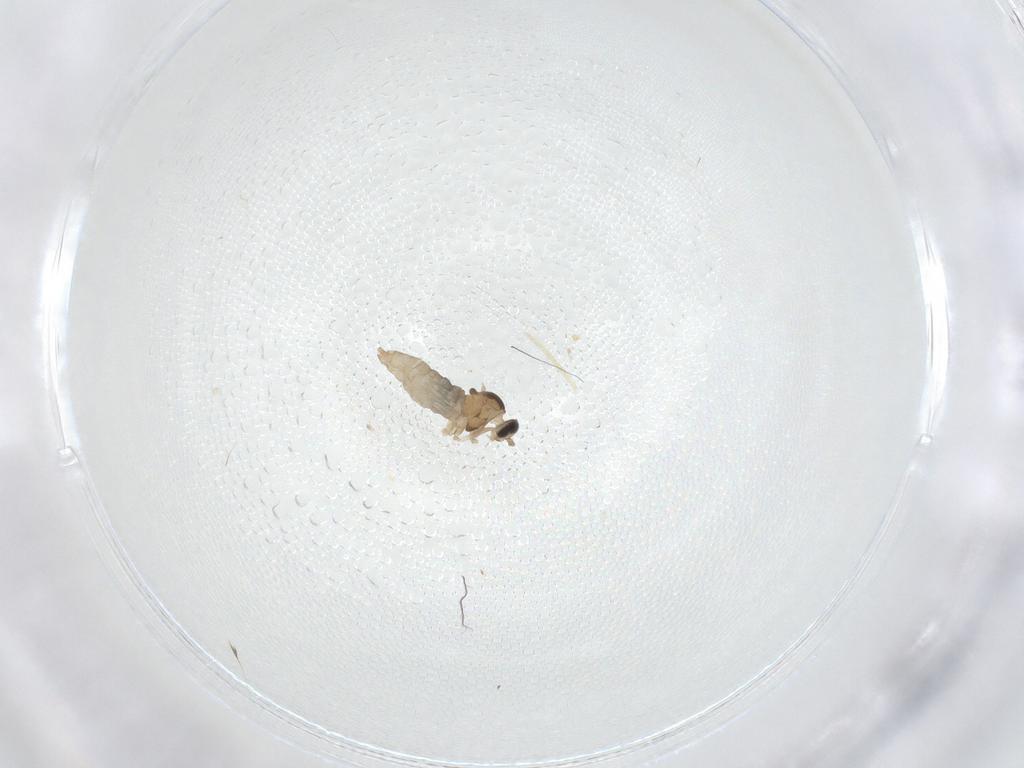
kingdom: Animalia
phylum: Arthropoda
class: Insecta
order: Diptera
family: Cecidomyiidae
